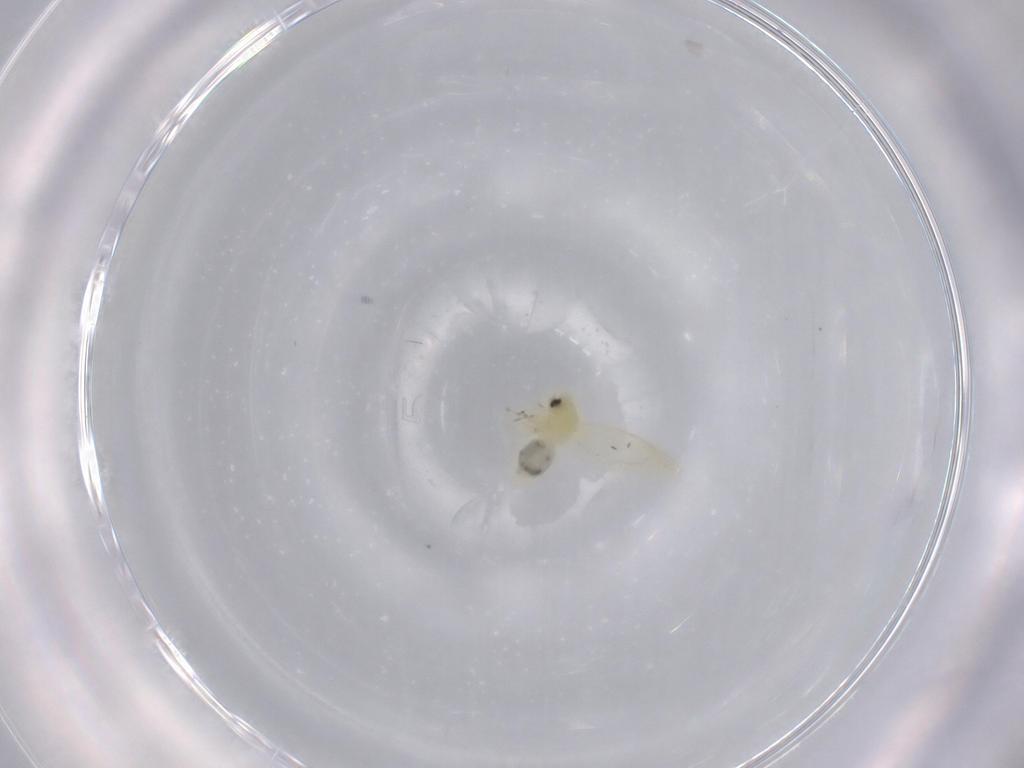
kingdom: Animalia
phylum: Arthropoda
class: Insecta
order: Hemiptera
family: Aleyrodidae
